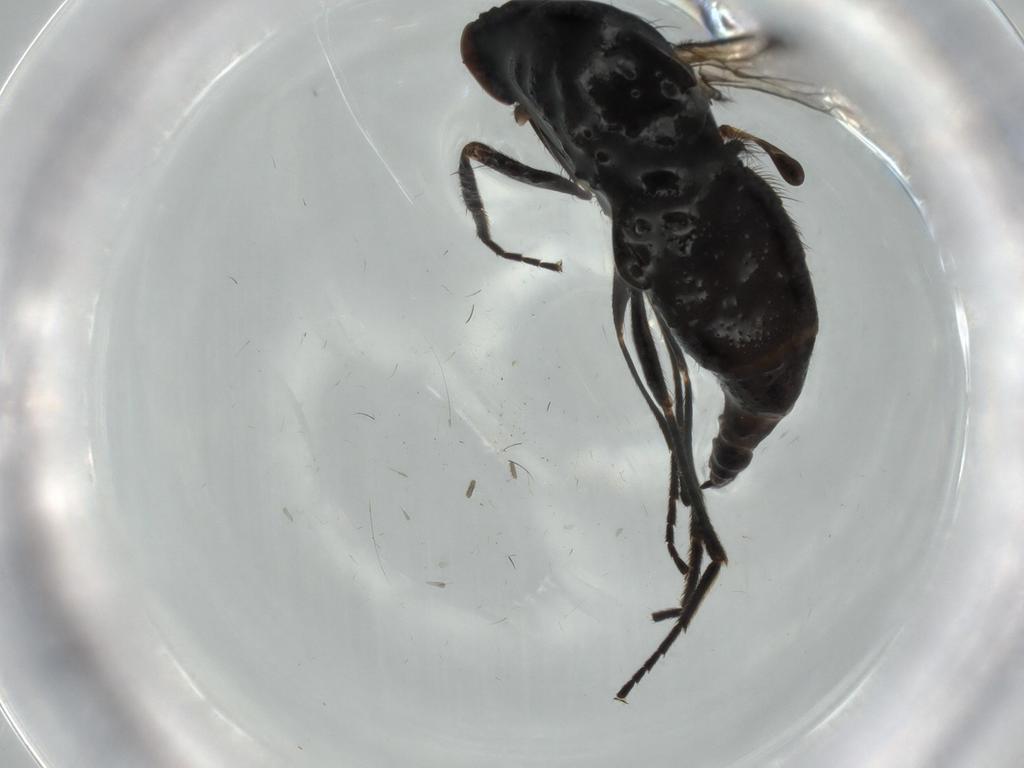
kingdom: Animalia
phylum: Arthropoda
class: Insecta
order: Diptera
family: Empididae
